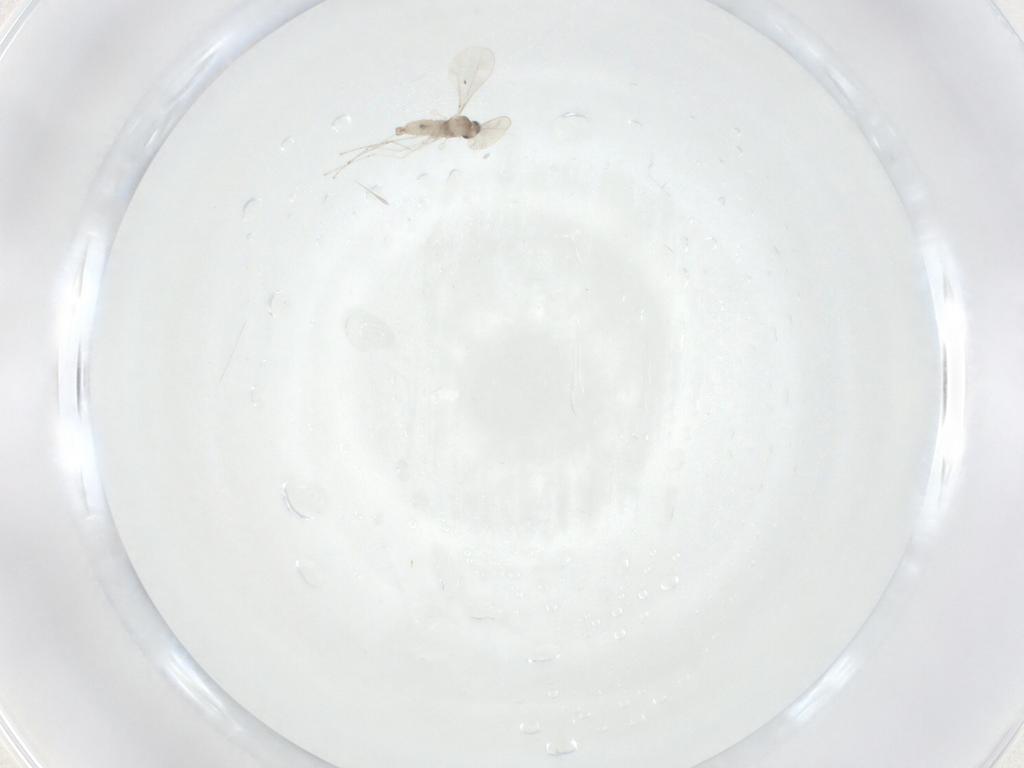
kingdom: Animalia
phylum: Arthropoda
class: Insecta
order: Diptera
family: Cecidomyiidae
